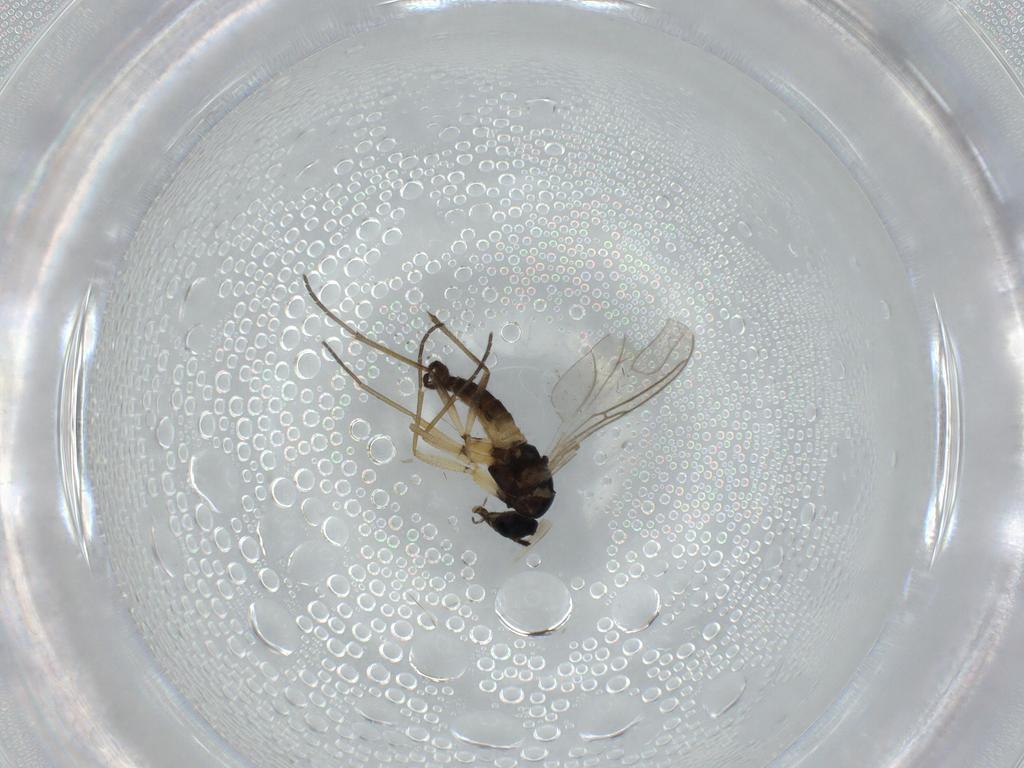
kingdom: Animalia
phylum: Arthropoda
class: Insecta
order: Diptera
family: Sciaridae
